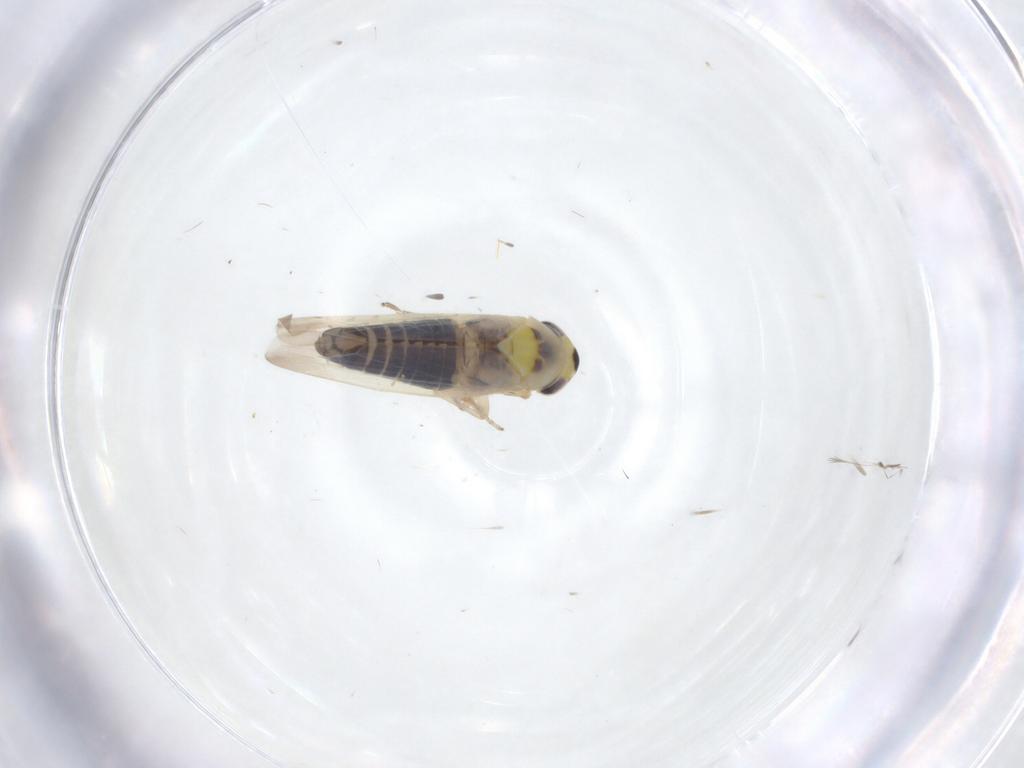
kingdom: Animalia
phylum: Arthropoda
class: Insecta
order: Hemiptera
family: Cicadellidae
